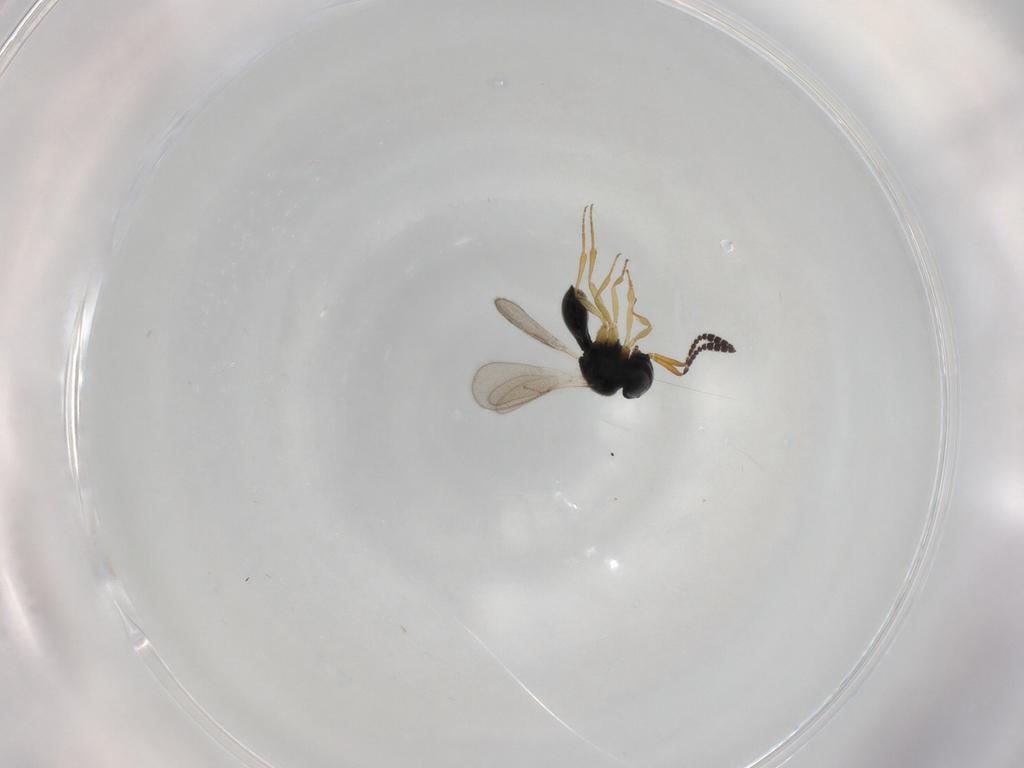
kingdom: Animalia
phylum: Arthropoda
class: Insecta
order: Hymenoptera
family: Scelionidae
